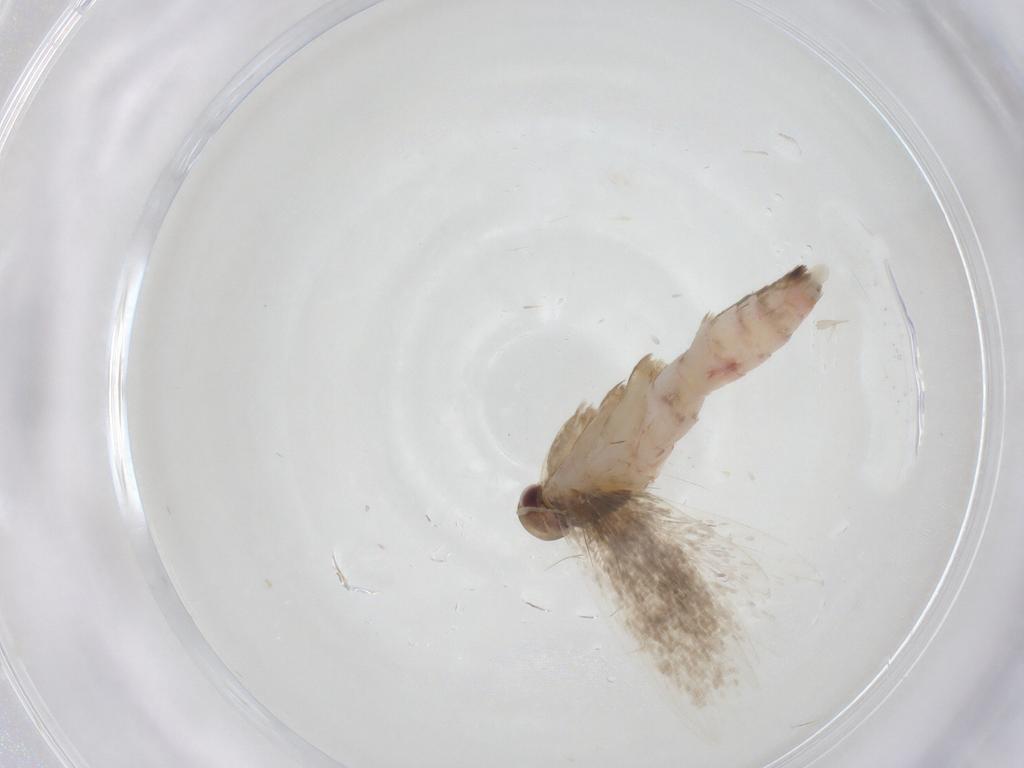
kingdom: Animalia
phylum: Arthropoda
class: Insecta
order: Lepidoptera
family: Gelechiidae
